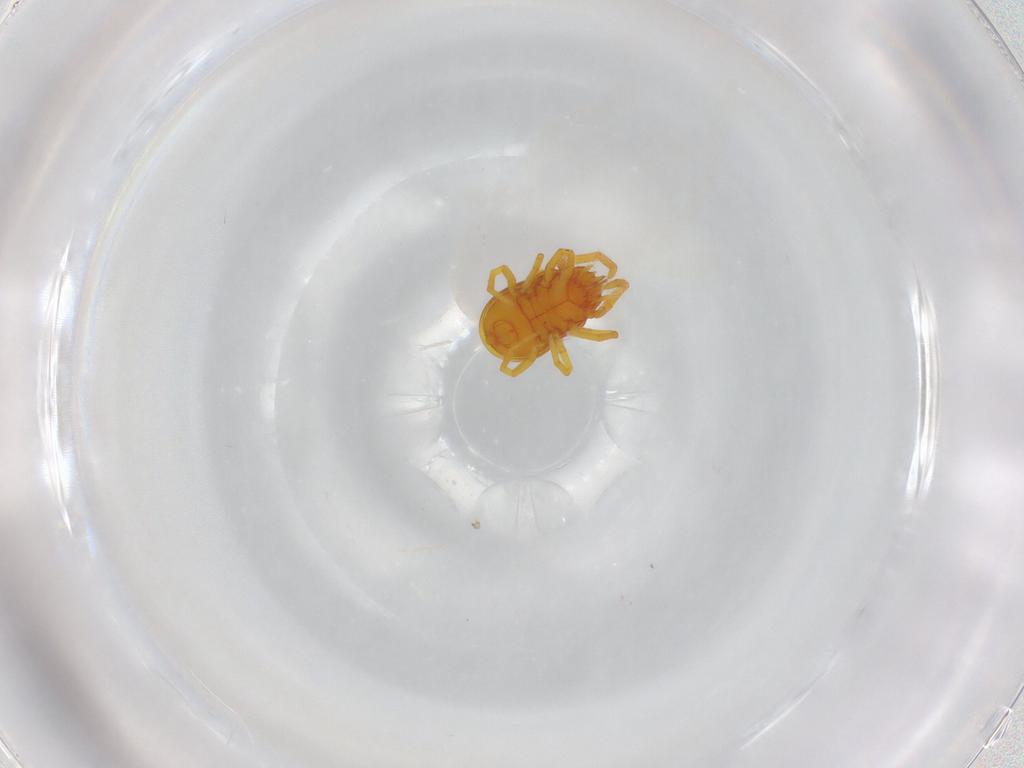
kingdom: Animalia
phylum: Arthropoda
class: Arachnida
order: Trombidiformes
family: Labidostommidae
